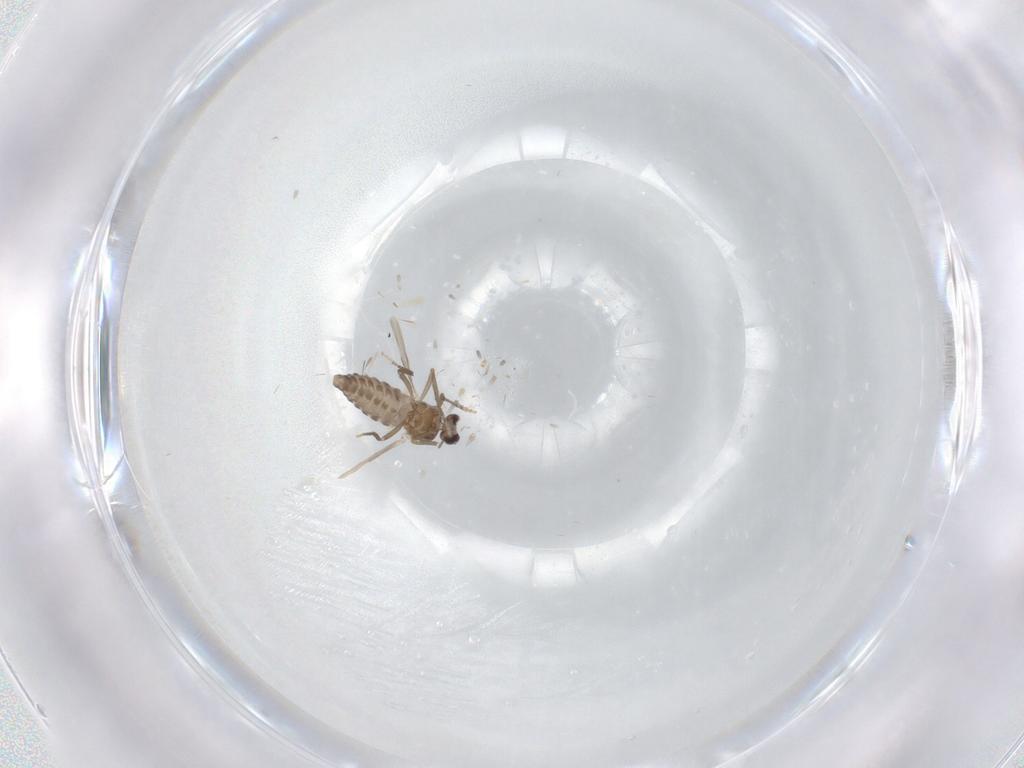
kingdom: Animalia
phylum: Arthropoda
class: Insecta
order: Diptera
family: Ceratopogonidae
